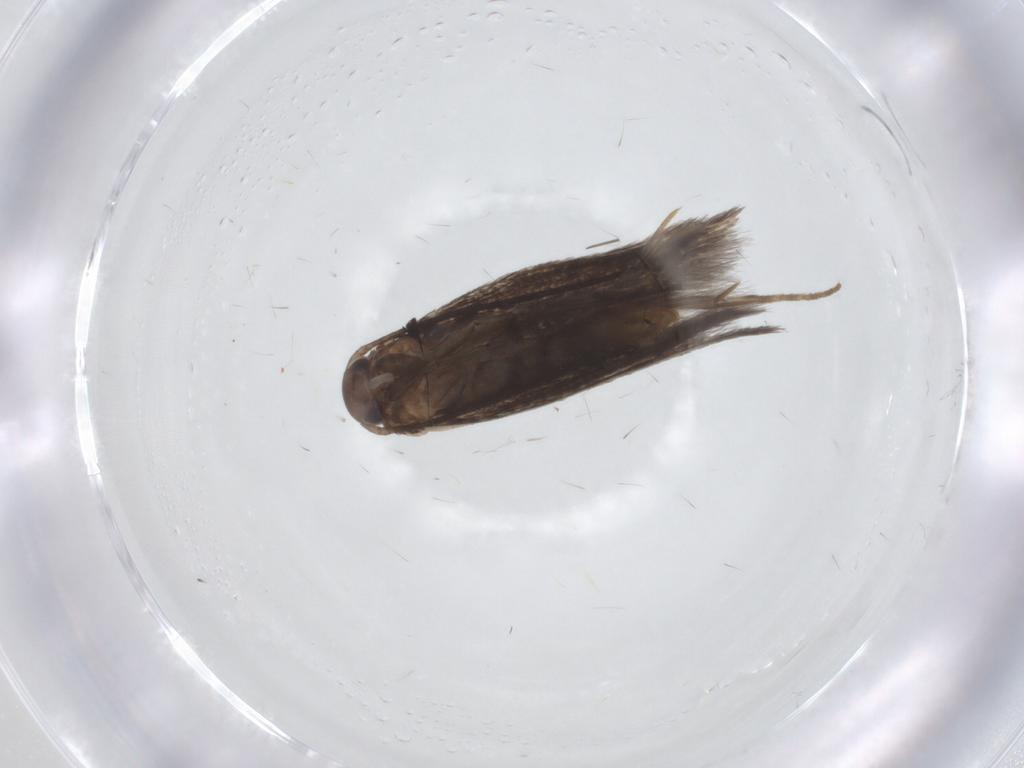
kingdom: Animalia
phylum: Arthropoda
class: Insecta
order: Lepidoptera
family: Elachistidae
